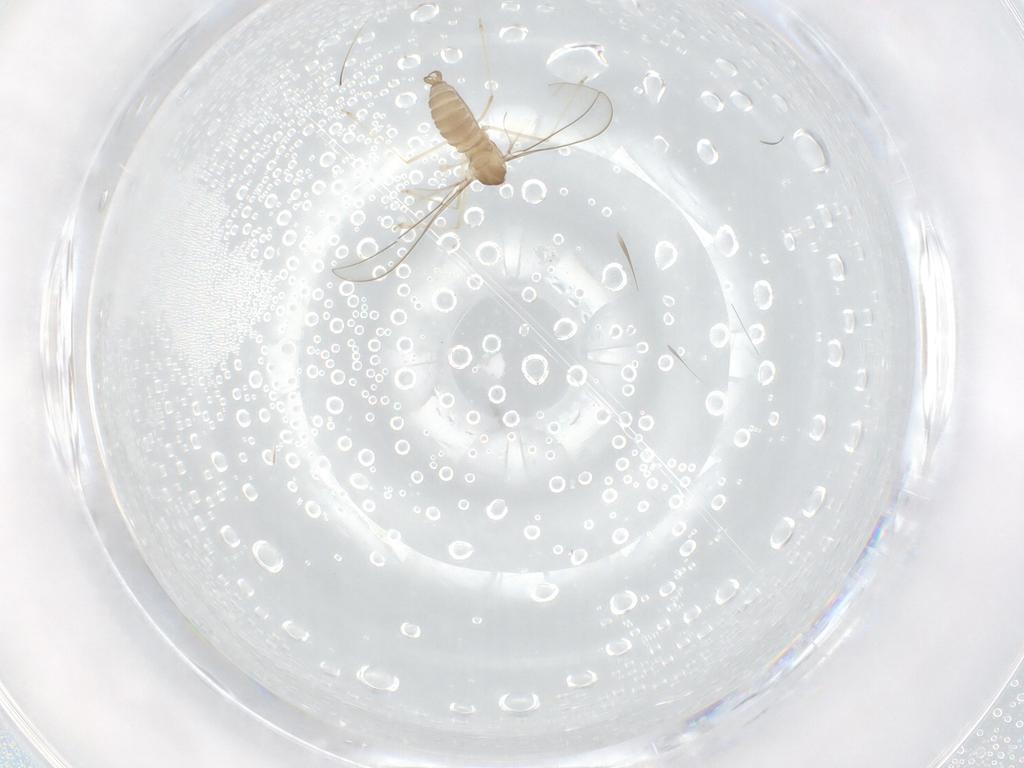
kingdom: Animalia
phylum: Arthropoda
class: Insecta
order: Diptera
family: Cecidomyiidae
